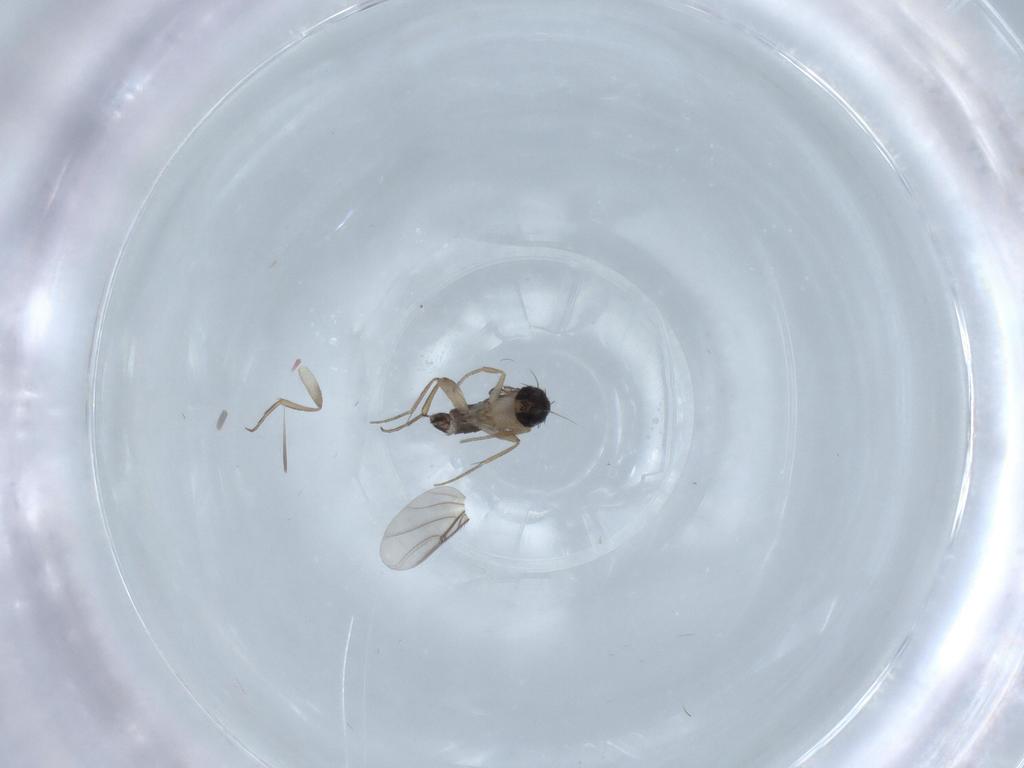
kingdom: Animalia
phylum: Arthropoda
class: Insecta
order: Diptera
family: Phoridae
